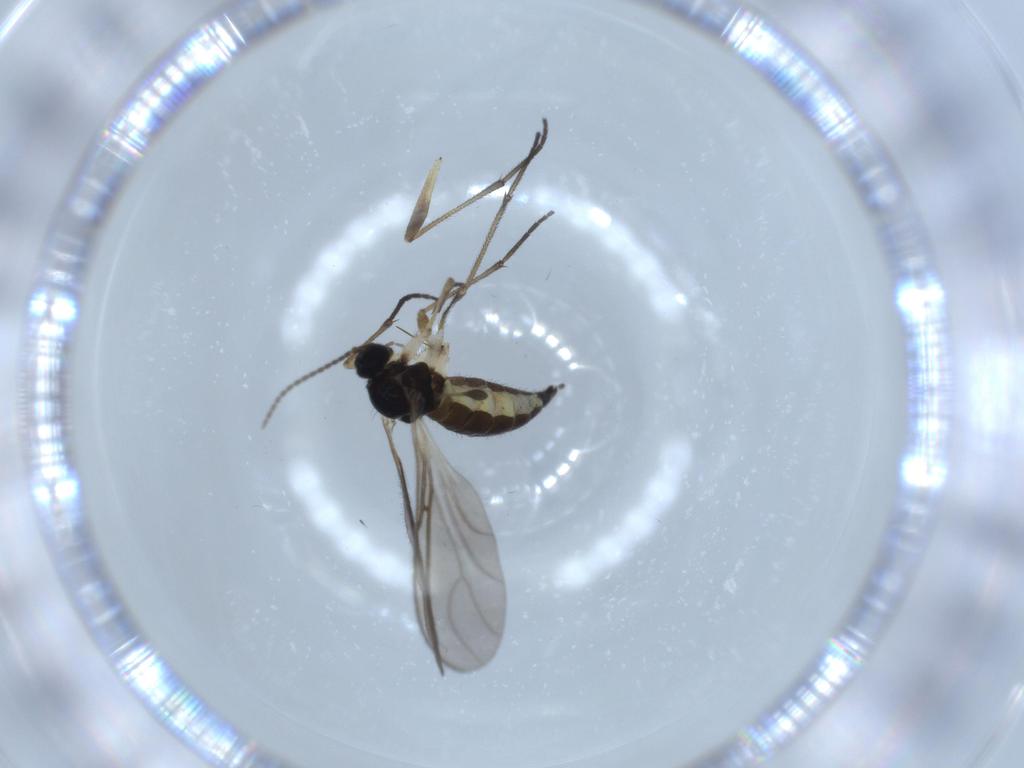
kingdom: Animalia
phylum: Arthropoda
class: Insecta
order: Diptera
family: Sciaridae
